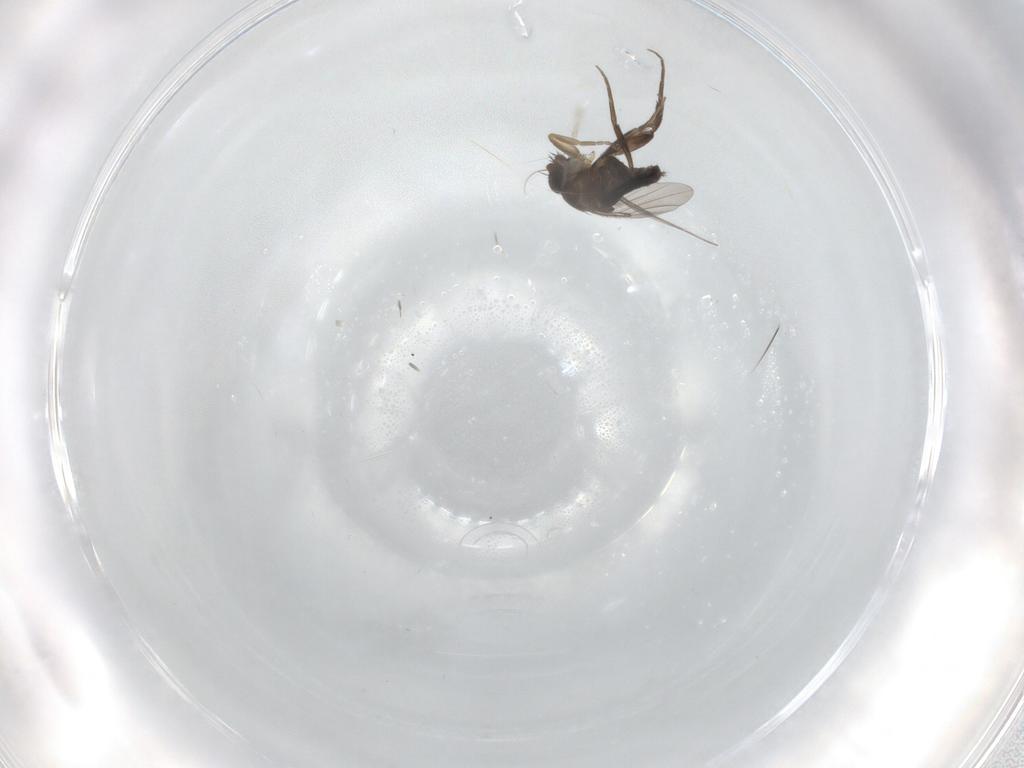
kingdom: Animalia
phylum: Arthropoda
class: Insecta
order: Diptera
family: Phoridae
